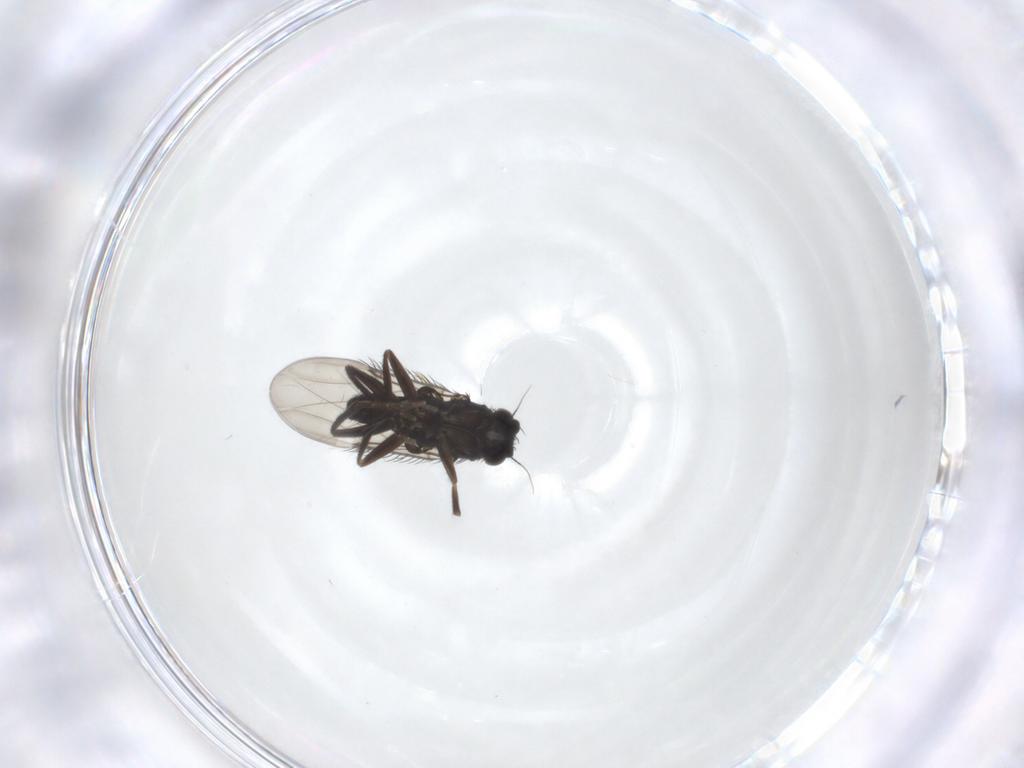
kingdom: Animalia
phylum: Arthropoda
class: Insecta
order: Diptera
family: Phoridae
